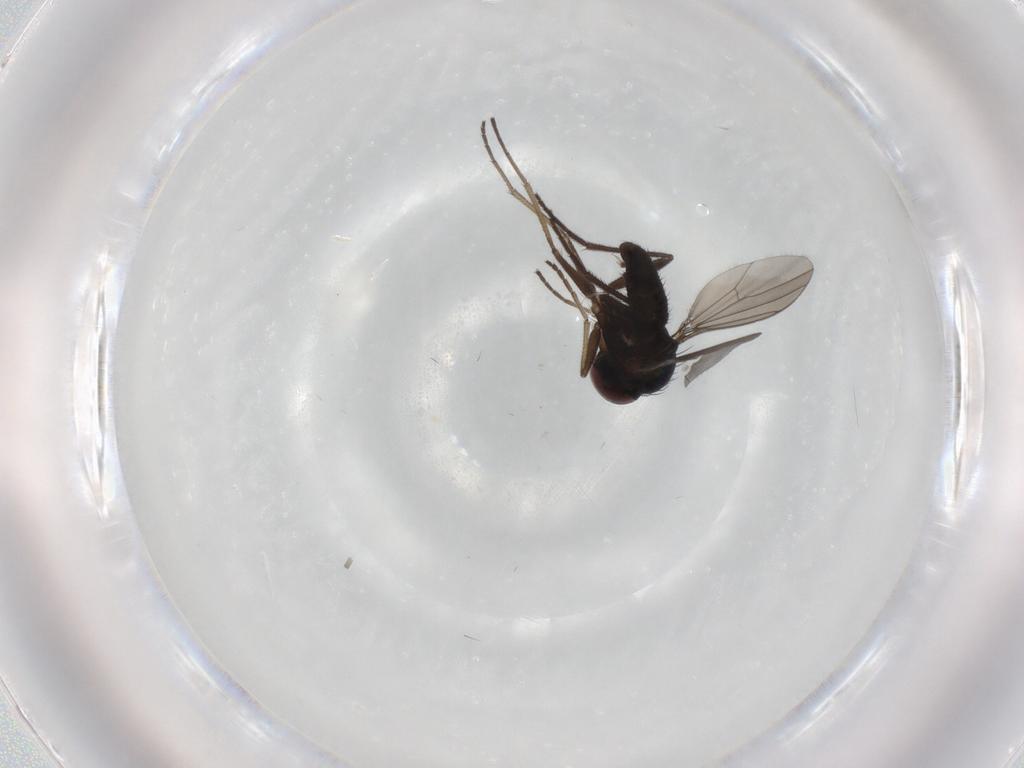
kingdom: Animalia
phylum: Arthropoda
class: Insecta
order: Diptera
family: Dolichopodidae
